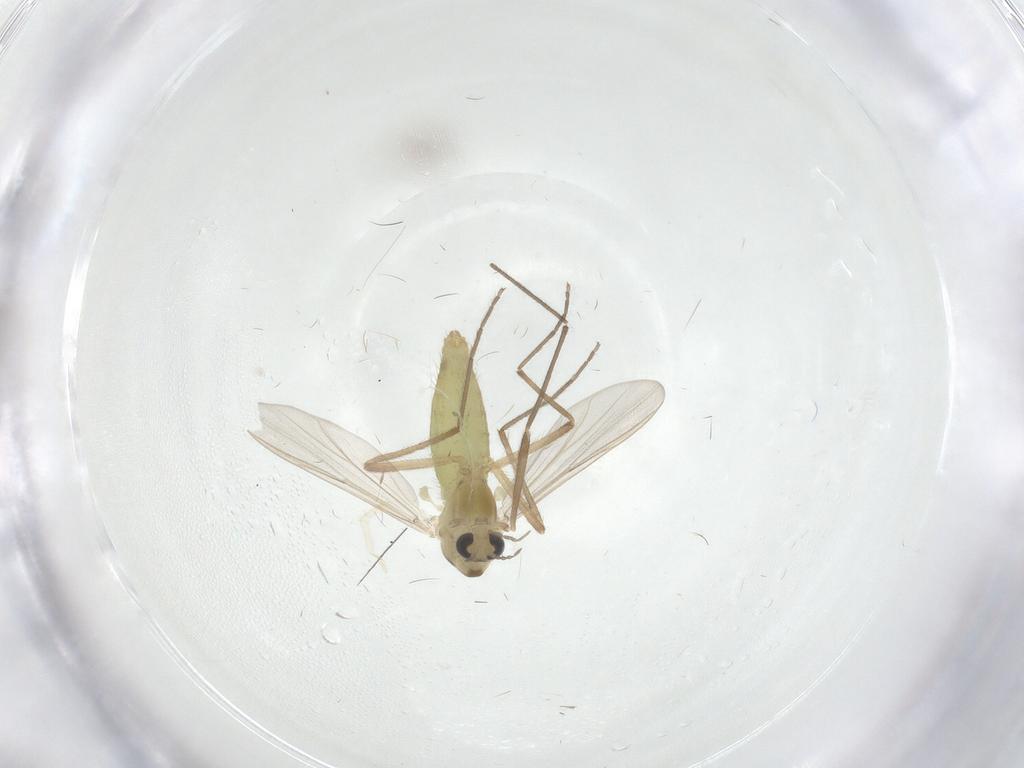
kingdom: Animalia
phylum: Arthropoda
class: Insecta
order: Diptera
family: Chironomidae
